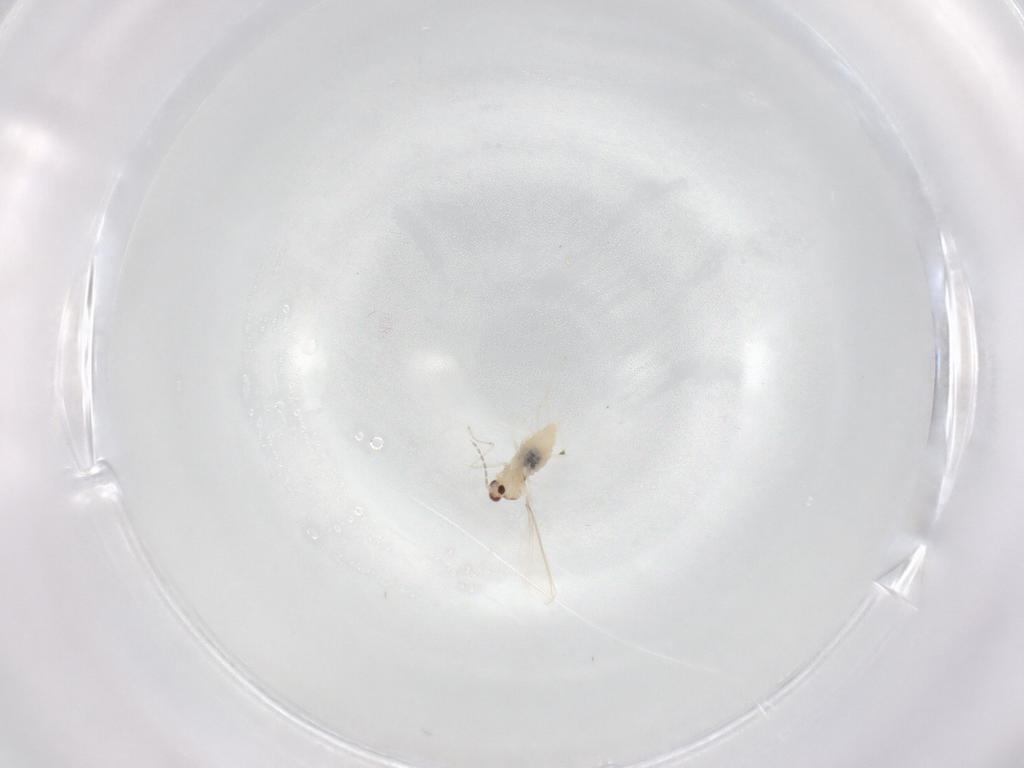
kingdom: Animalia
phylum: Arthropoda
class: Insecta
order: Diptera
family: Cecidomyiidae
